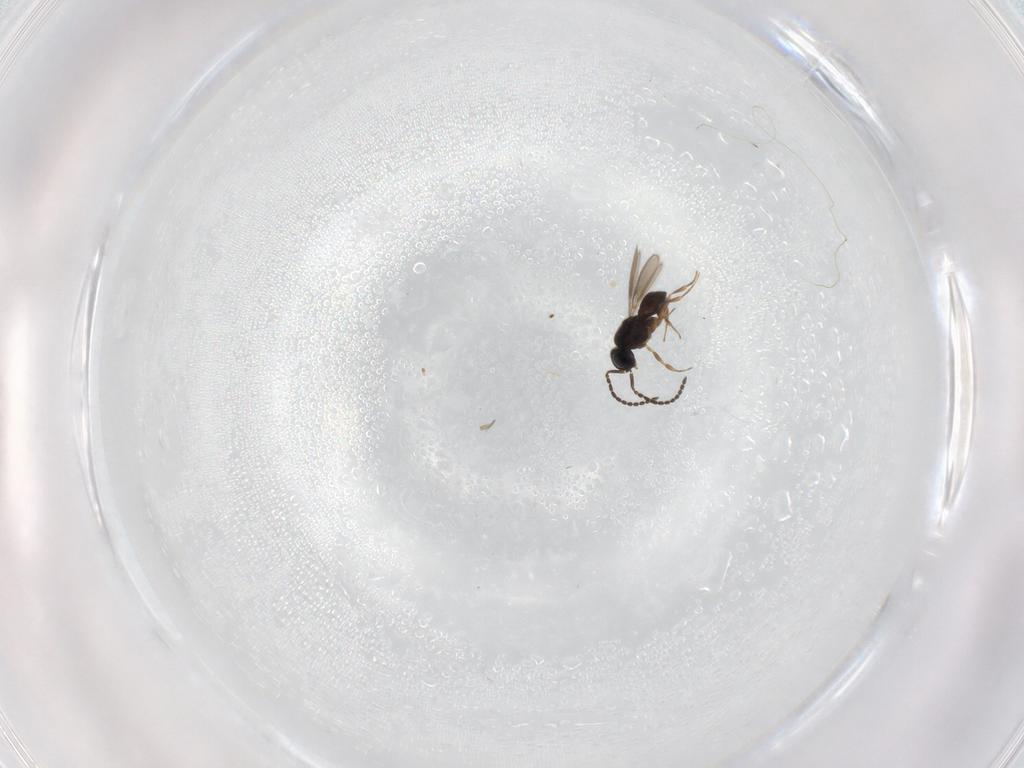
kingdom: Animalia
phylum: Arthropoda
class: Insecta
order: Hymenoptera
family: Scelionidae
